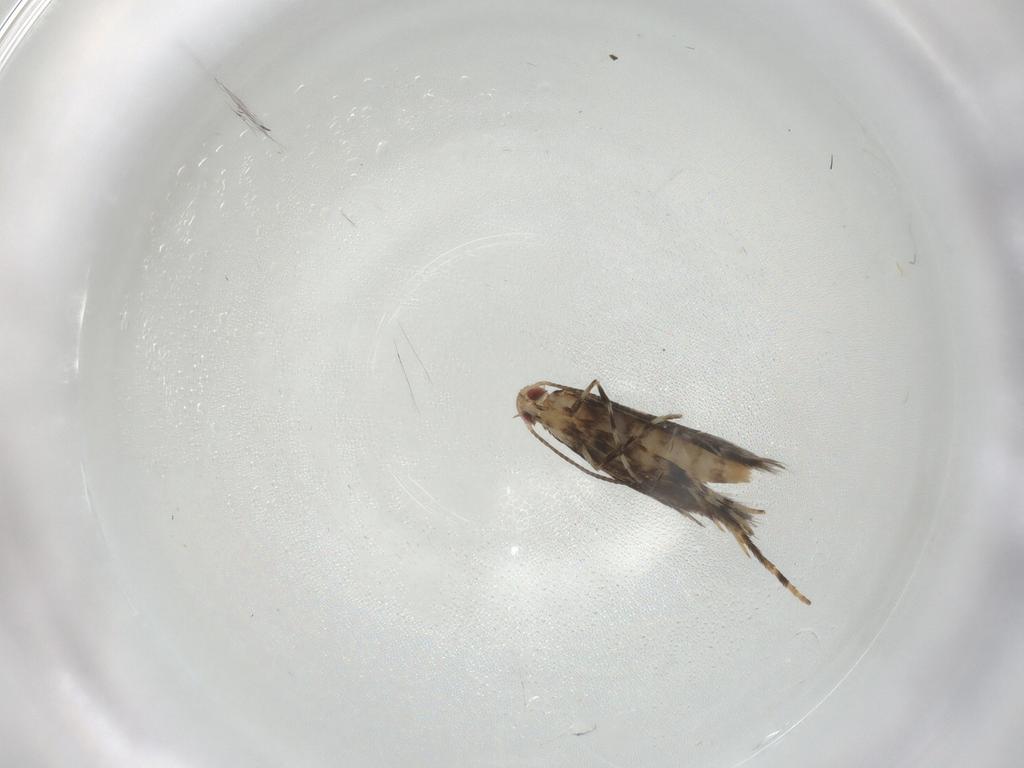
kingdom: Animalia
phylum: Arthropoda
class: Insecta
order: Lepidoptera
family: Gracillariidae
